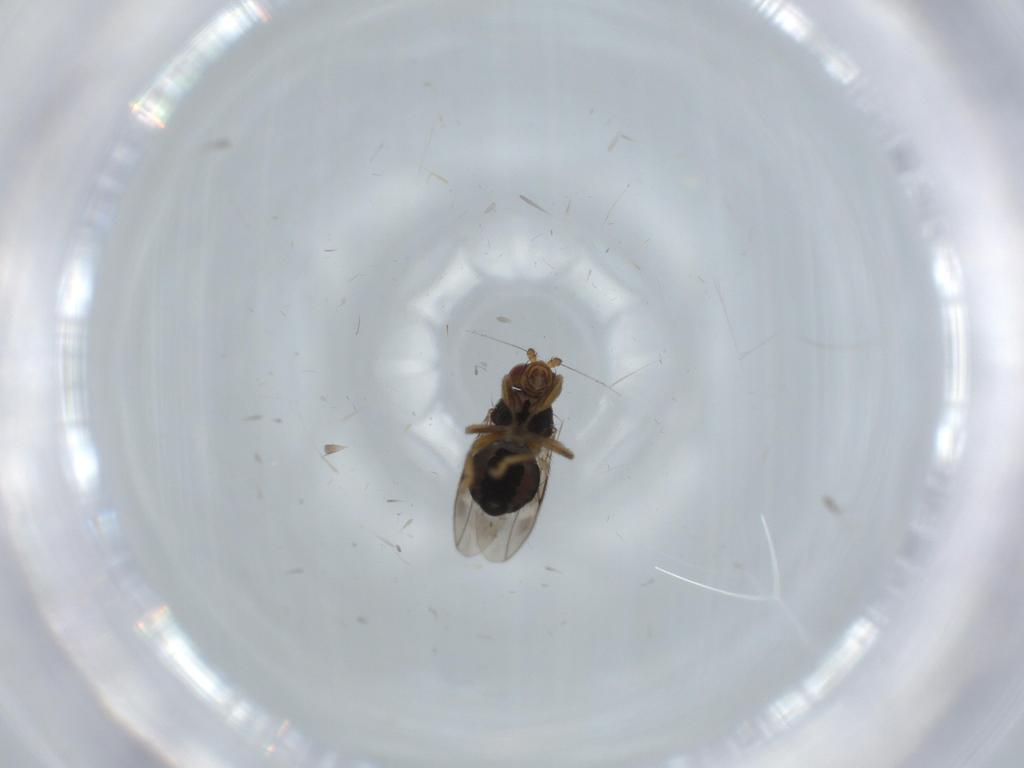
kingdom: Animalia
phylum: Arthropoda
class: Insecta
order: Diptera
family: Sphaeroceridae
